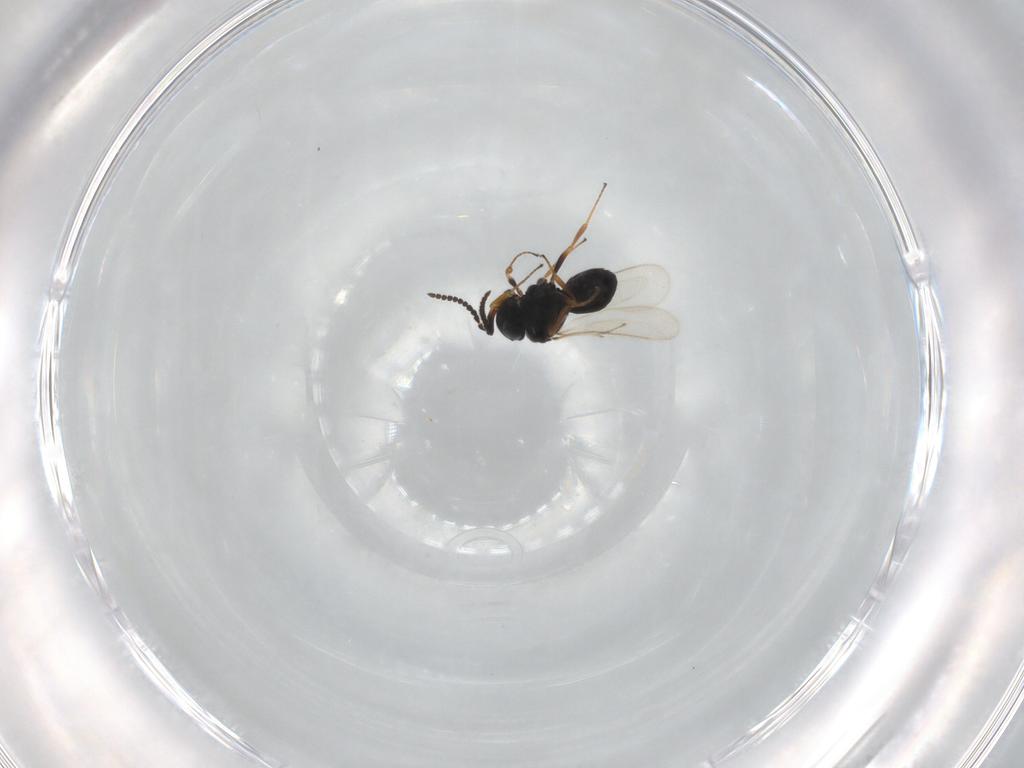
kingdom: Animalia
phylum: Arthropoda
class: Insecta
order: Hymenoptera
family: Scelionidae
